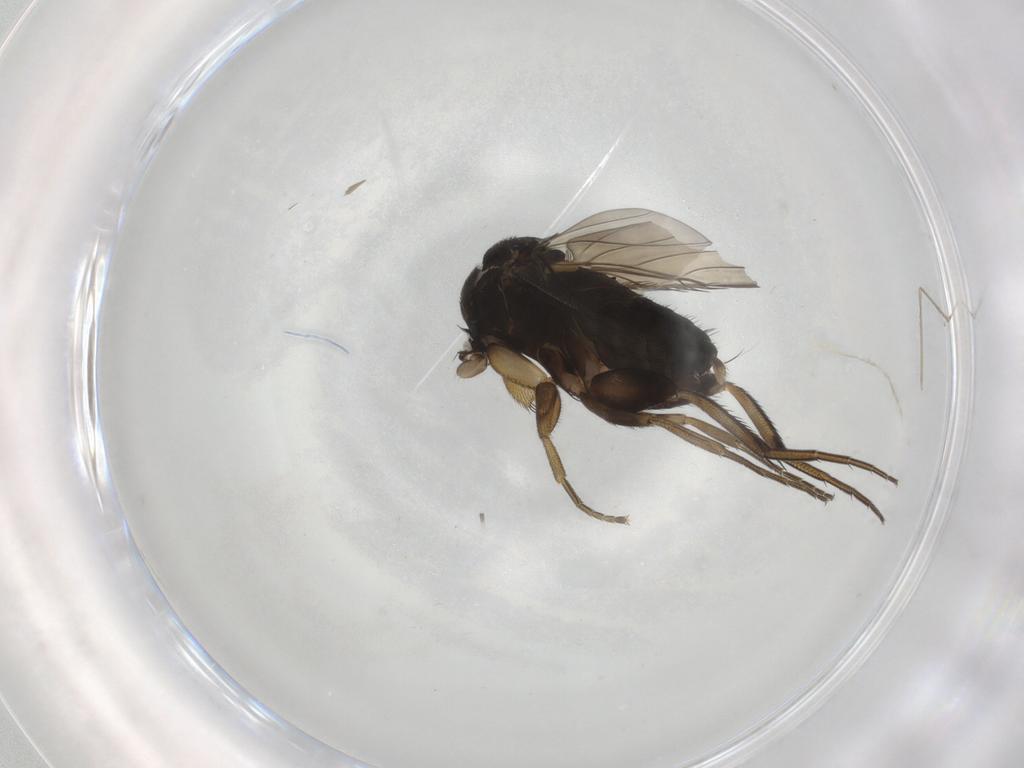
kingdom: Animalia
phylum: Arthropoda
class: Insecta
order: Diptera
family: Phoridae
